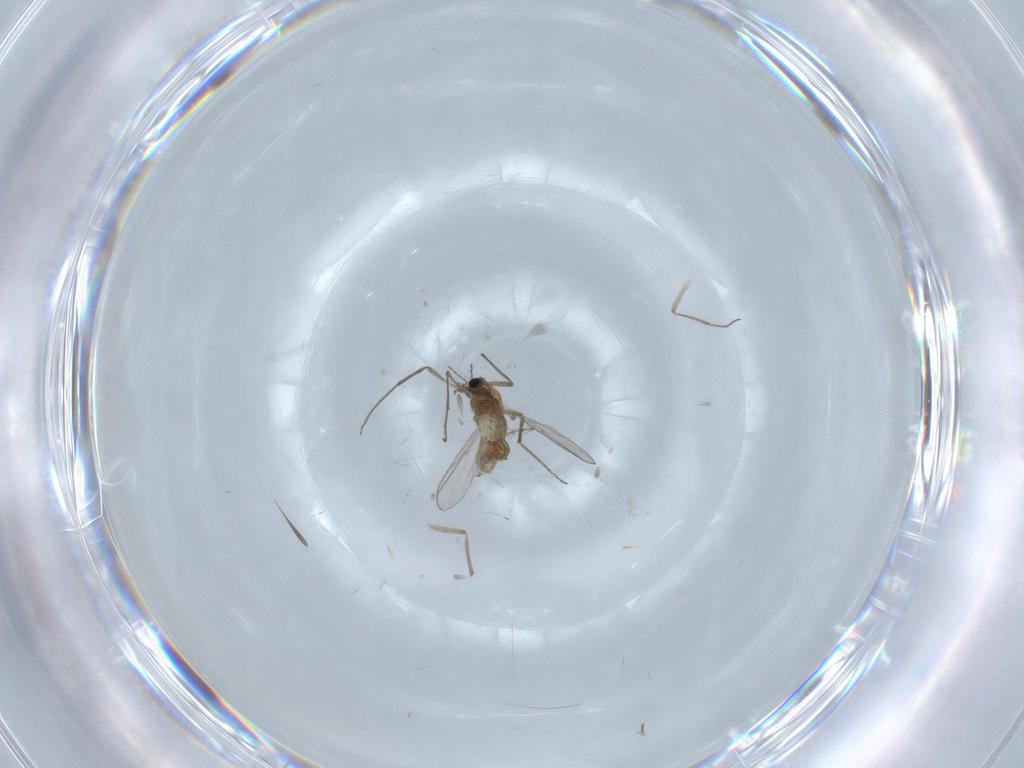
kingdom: Animalia
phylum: Arthropoda
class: Insecta
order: Diptera
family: Chironomidae
